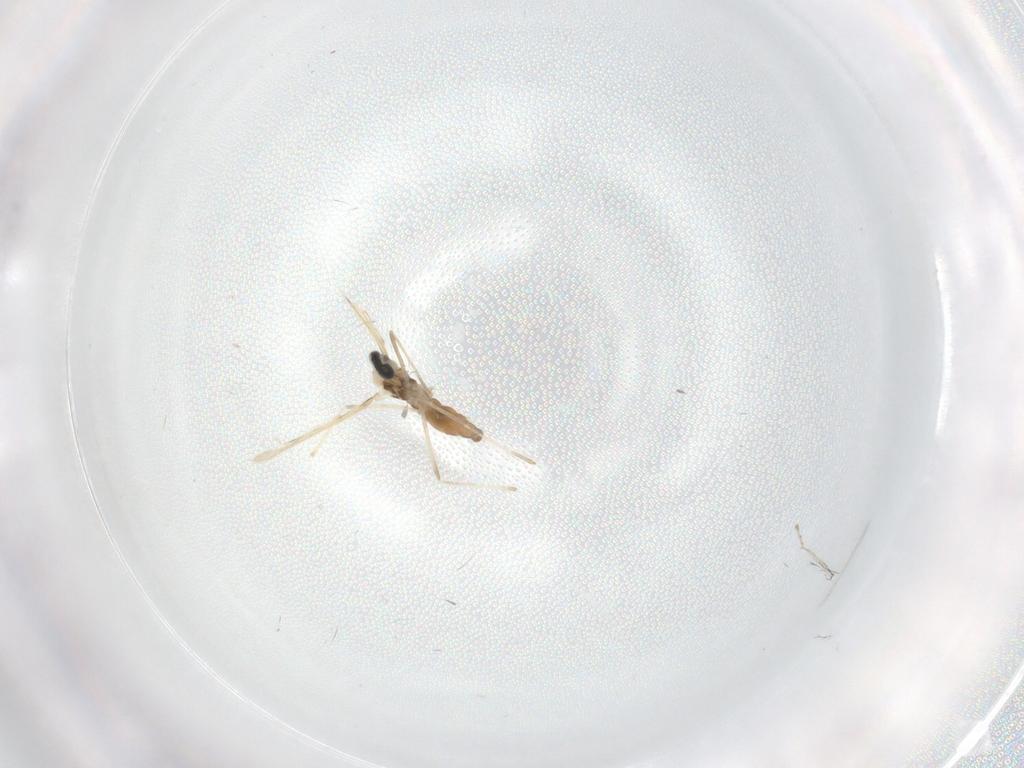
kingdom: Animalia
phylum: Arthropoda
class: Insecta
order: Diptera
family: Chironomidae
